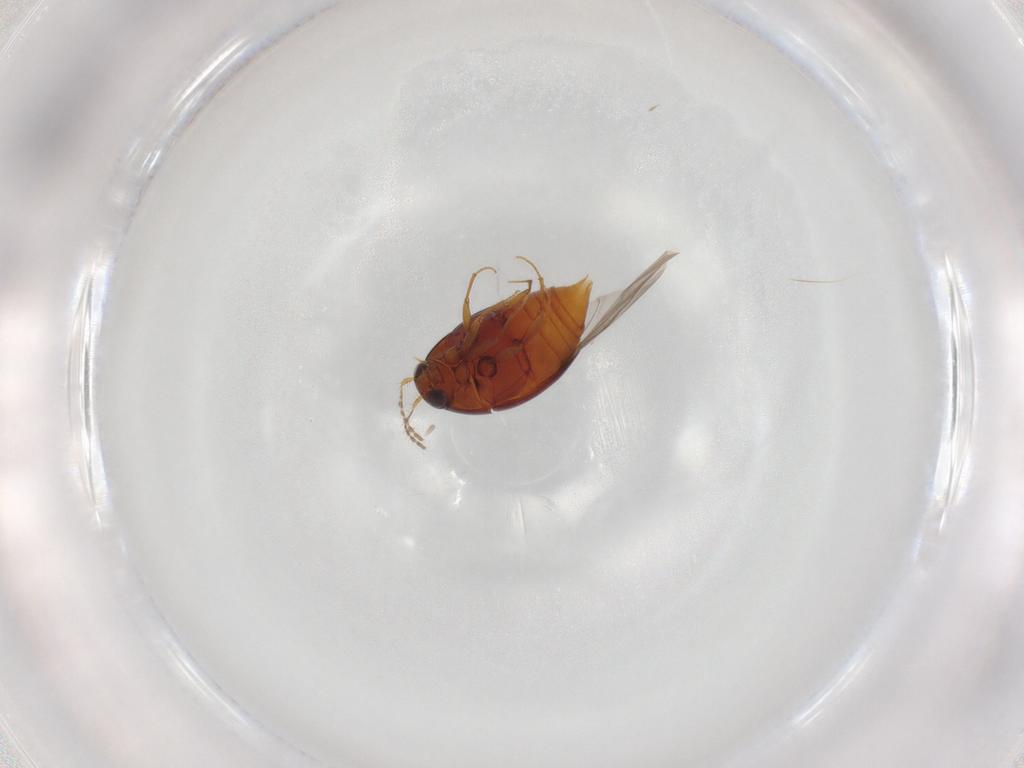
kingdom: Animalia
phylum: Arthropoda
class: Insecta
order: Coleoptera
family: Staphylinidae
